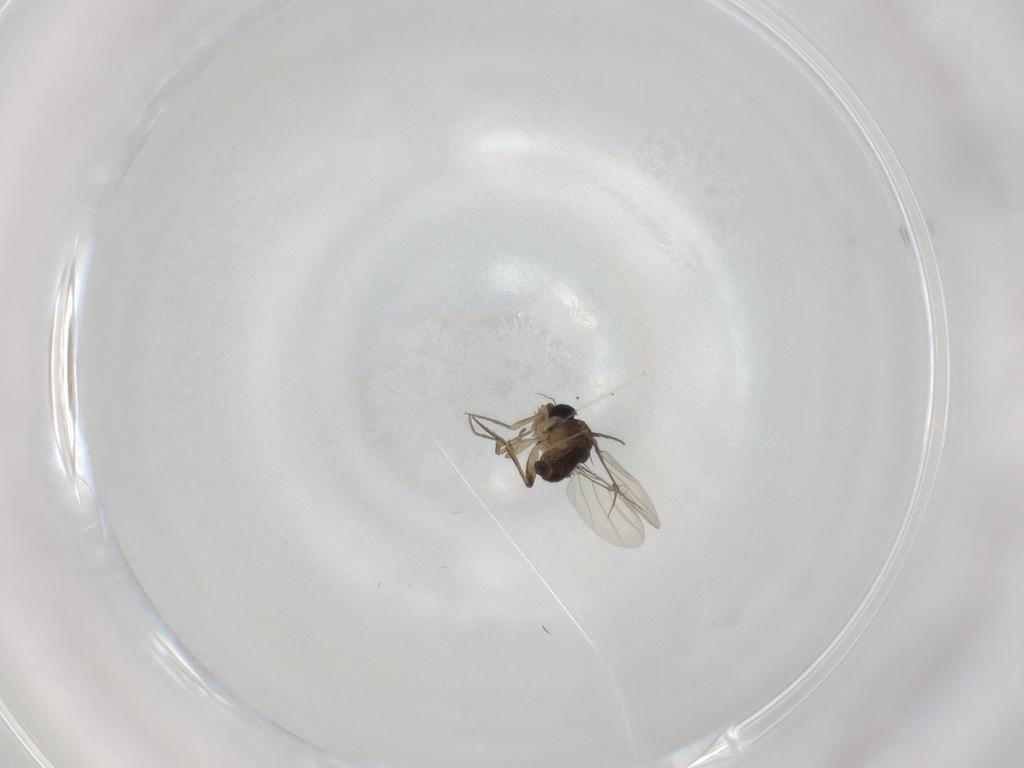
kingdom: Animalia
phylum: Arthropoda
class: Insecta
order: Diptera
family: Phoridae
